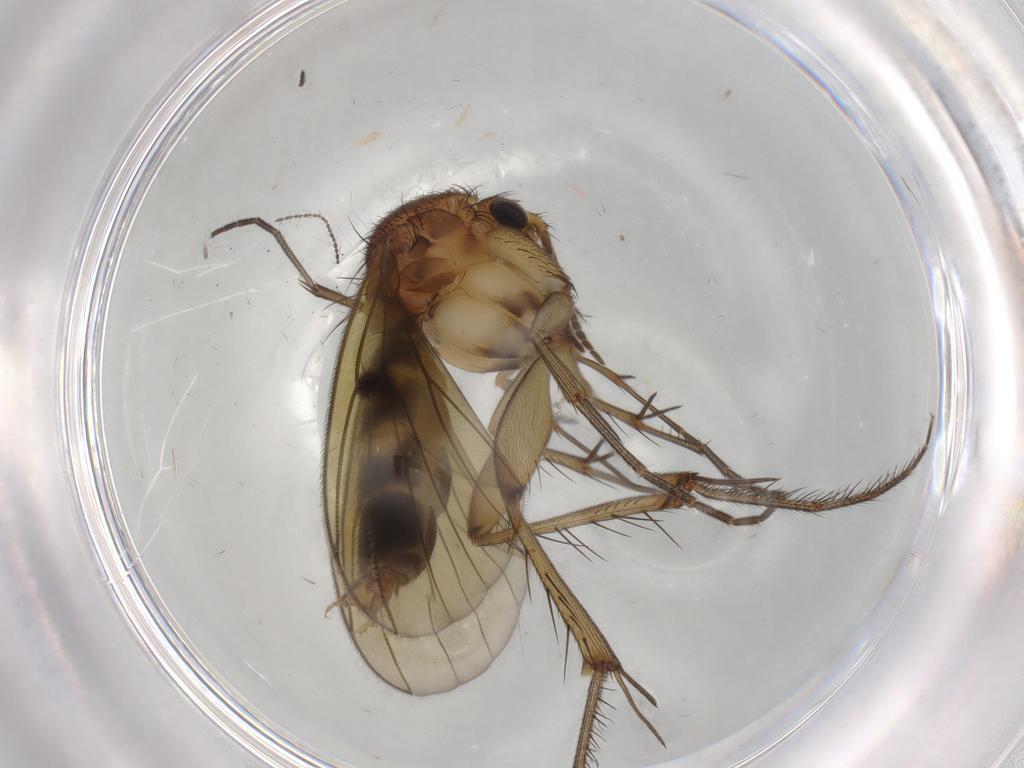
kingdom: Animalia
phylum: Arthropoda
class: Insecta
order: Diptera
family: Mycetophilidae
